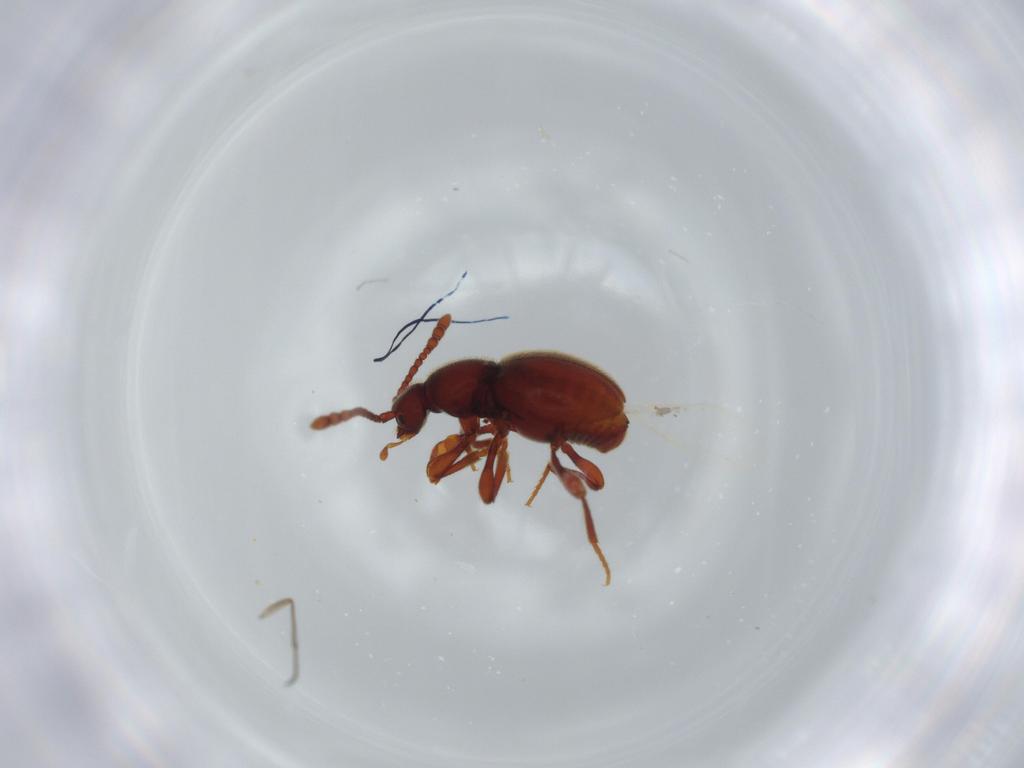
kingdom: Animalia
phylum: Arthropoda
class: Insecta
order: Coleoptera
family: Staphylinidae
